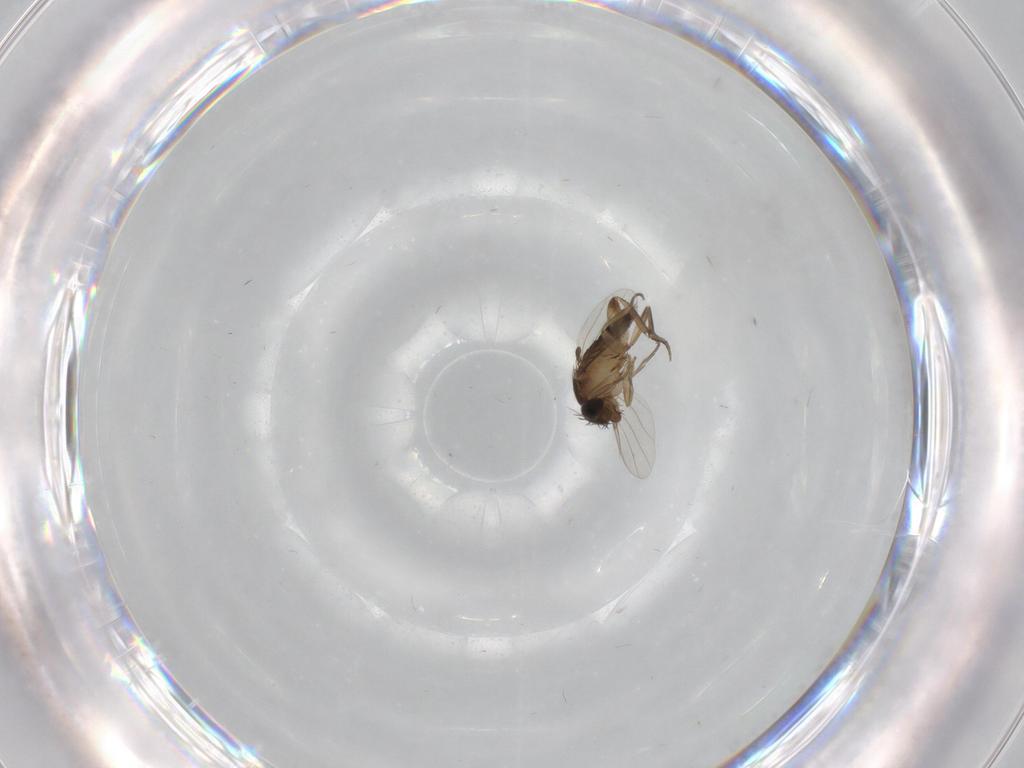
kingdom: Animalia
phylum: Arthropoda
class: Insecta
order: Diptera
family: Cecidomyiidae
